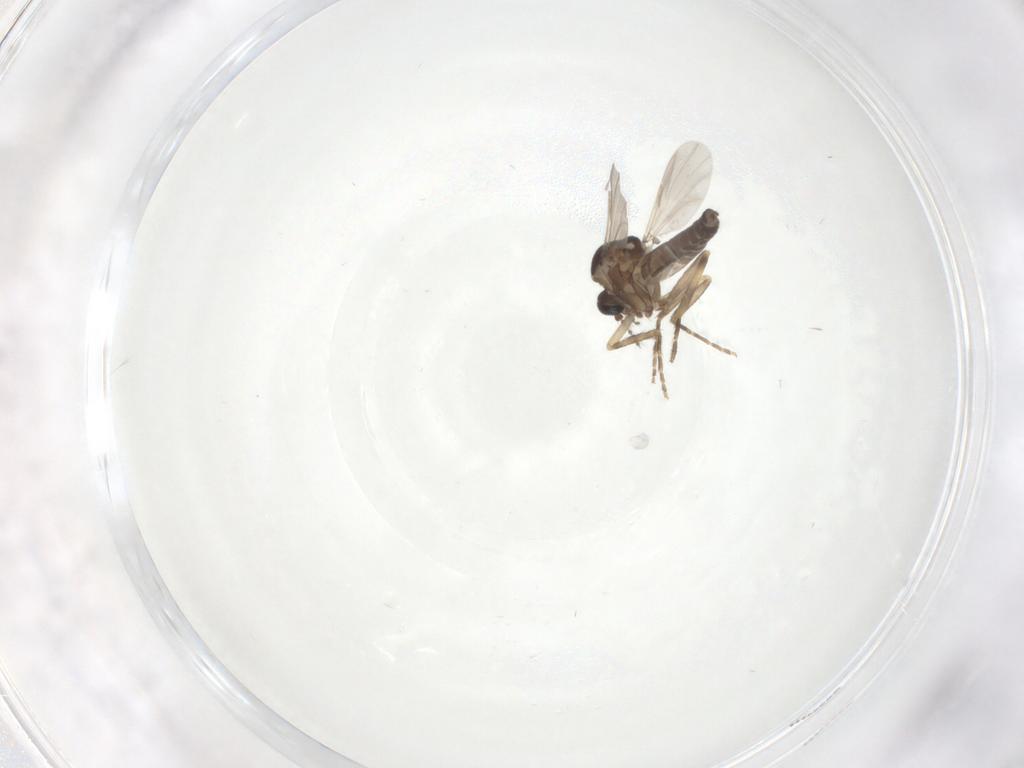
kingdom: Animalia
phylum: Arthropoda
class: Insecta
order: Diptera
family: Ceratopogonidae
